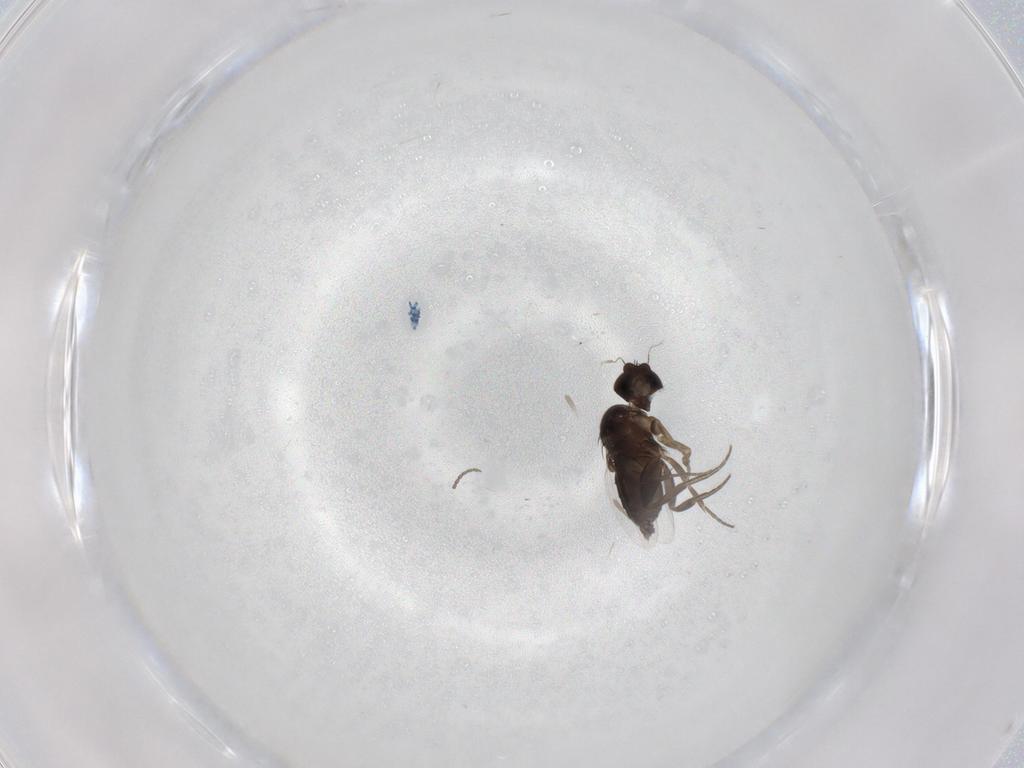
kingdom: Animalia
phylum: Arthropoda
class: Insecta
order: Diptera
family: Phoridae
